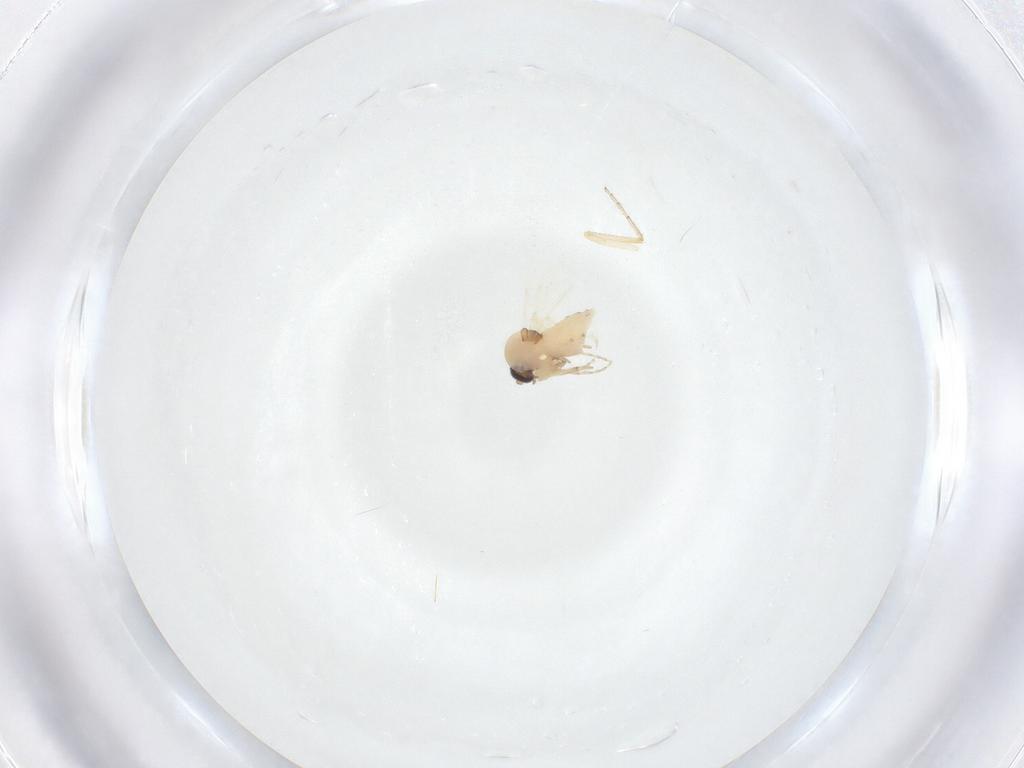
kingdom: Animalia
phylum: Arthropoda
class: Insecta
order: Diptera
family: Ceratopogonidae
